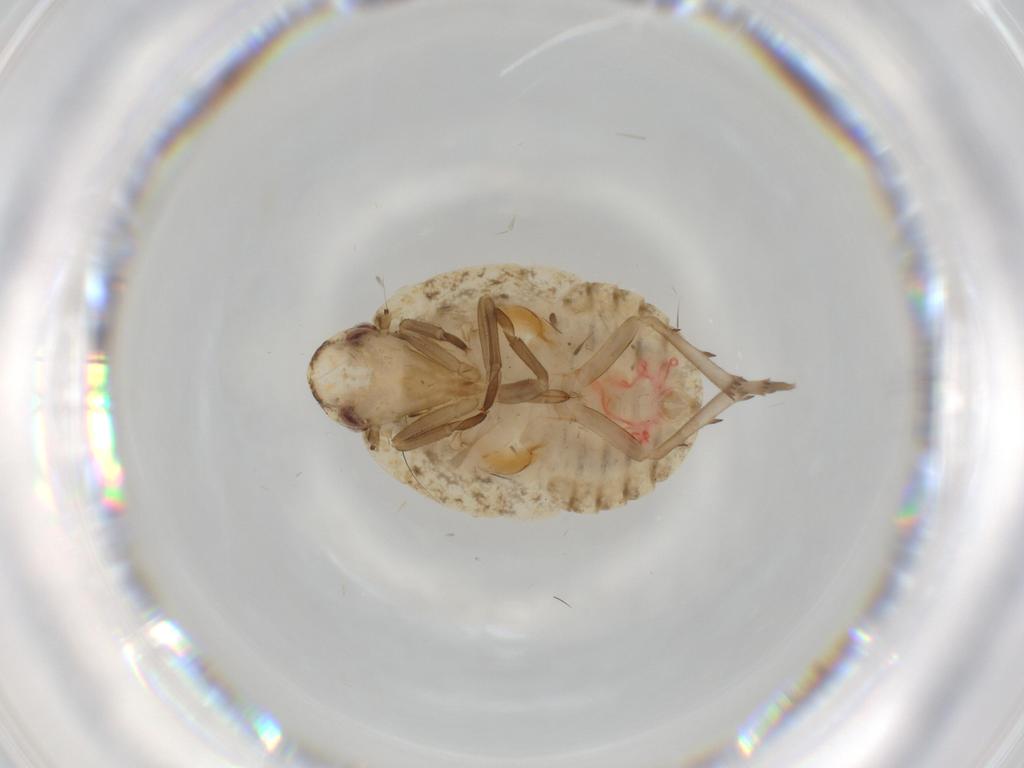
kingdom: Animalia
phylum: Arthropoda
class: Insecta
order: Hemiptera
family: Flatidae
